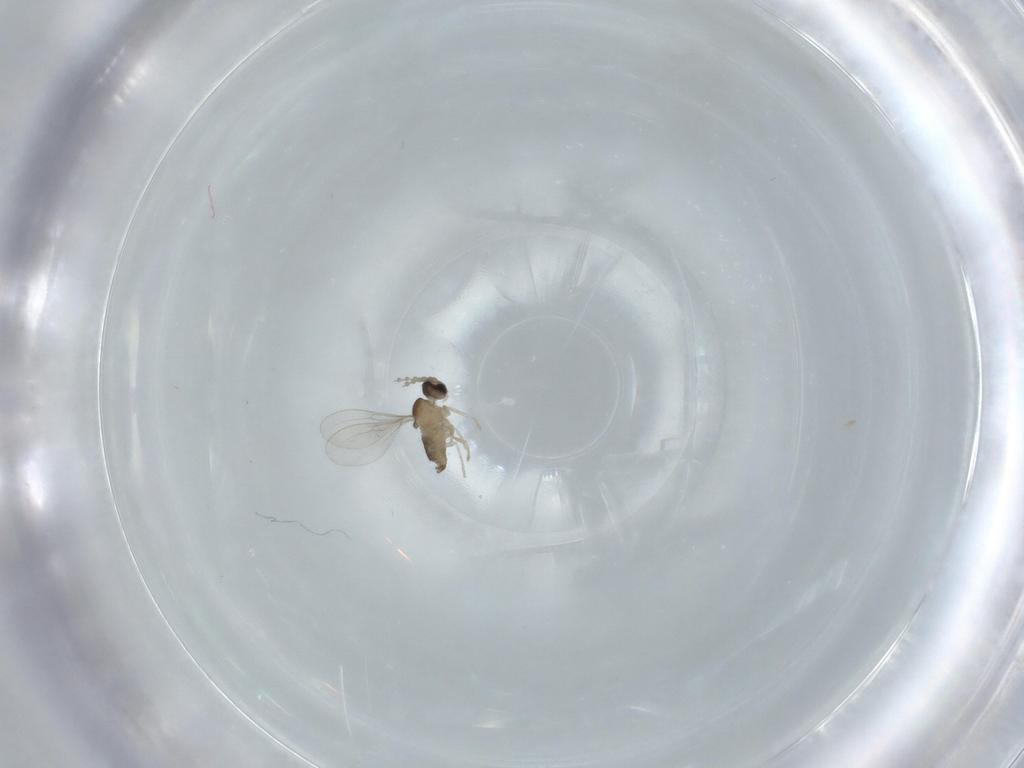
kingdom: Animalia
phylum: Arthropoda
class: Insecta
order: Diptera
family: Cecidomyiidae
